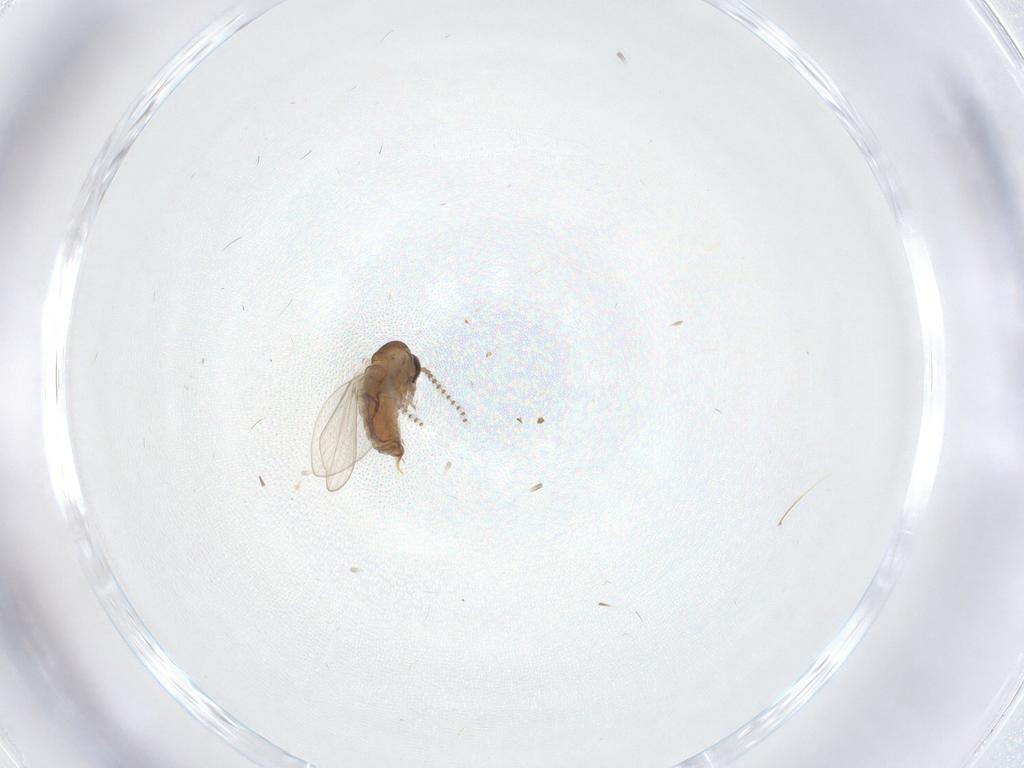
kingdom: Animalia
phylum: Arthropoda
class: Insecta
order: Diptera
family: Psychodidae
